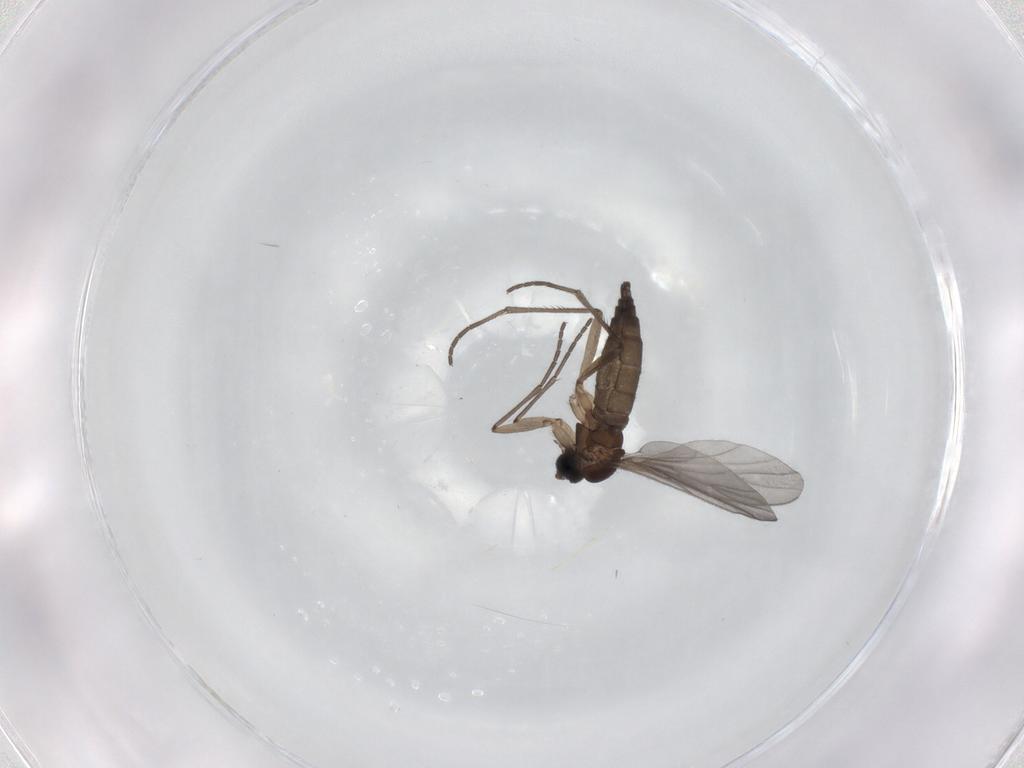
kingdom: Animalia
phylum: Arthropoda
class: Insecta
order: Diptera
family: Sciaridae
